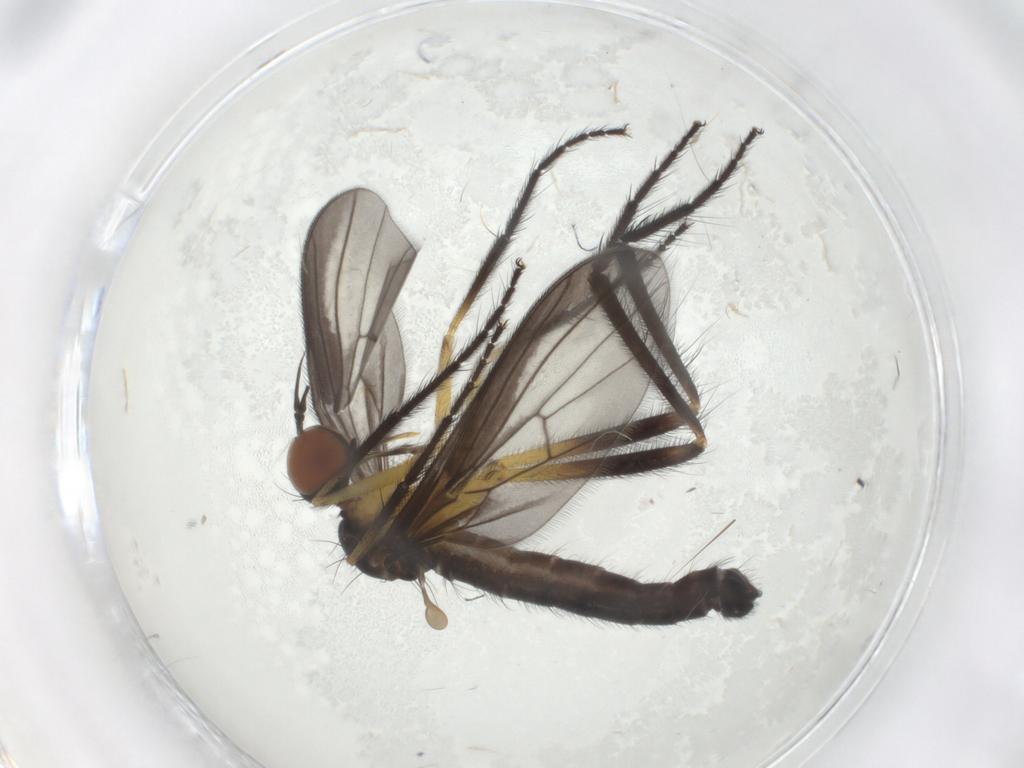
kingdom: Animalia
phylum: Arthropoda
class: Insecta
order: Diptera
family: Empididae
